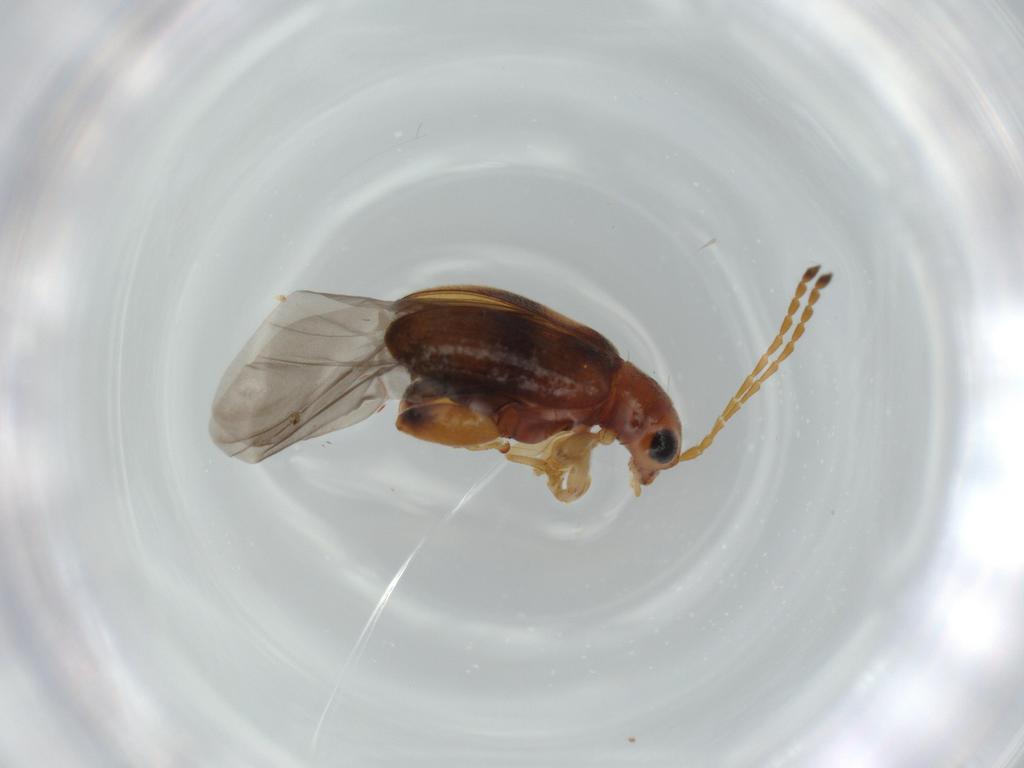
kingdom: Animalia
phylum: Arthropoda
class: Insecta
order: Coleoptera
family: Chrysomelidae
